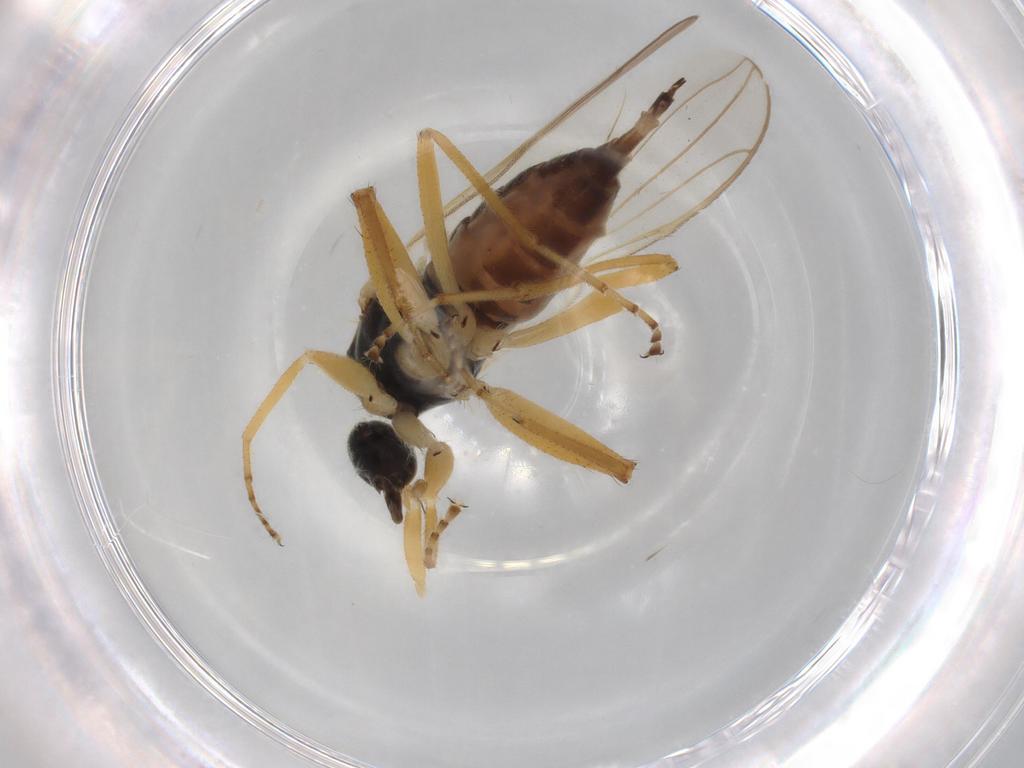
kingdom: Animalia
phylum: Arthropoda
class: Insecta
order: Diptera
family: Hybotidae
